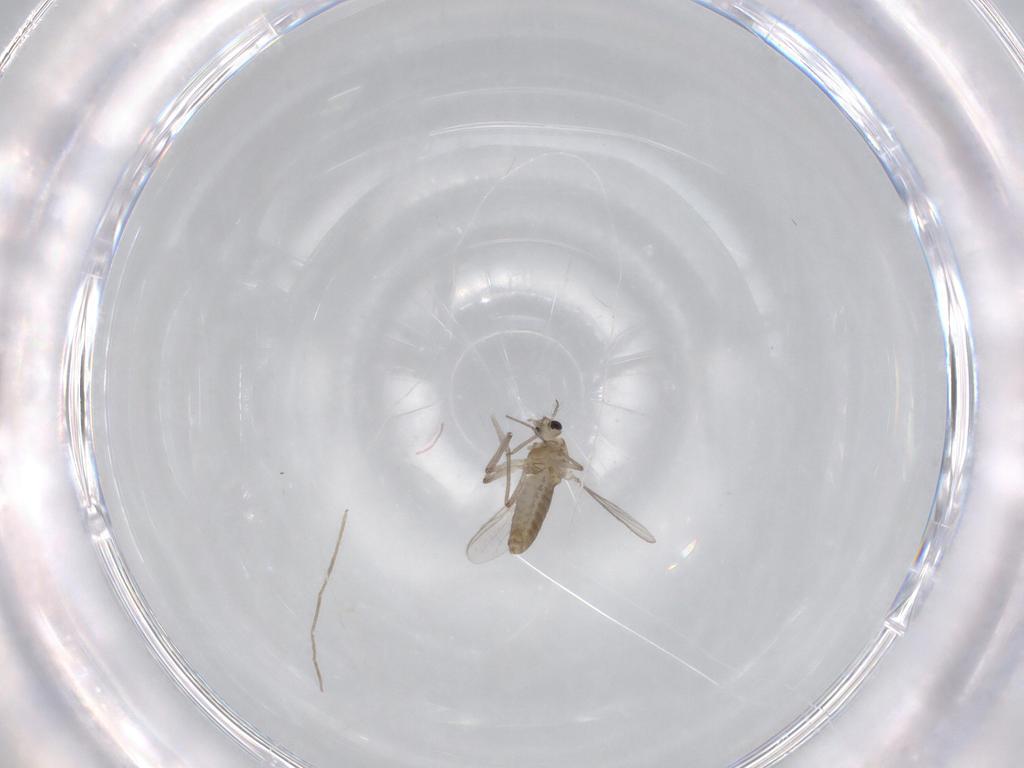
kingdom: Animalia
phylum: Arthropoda
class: Insecta
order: Diptera
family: Chironomidae
